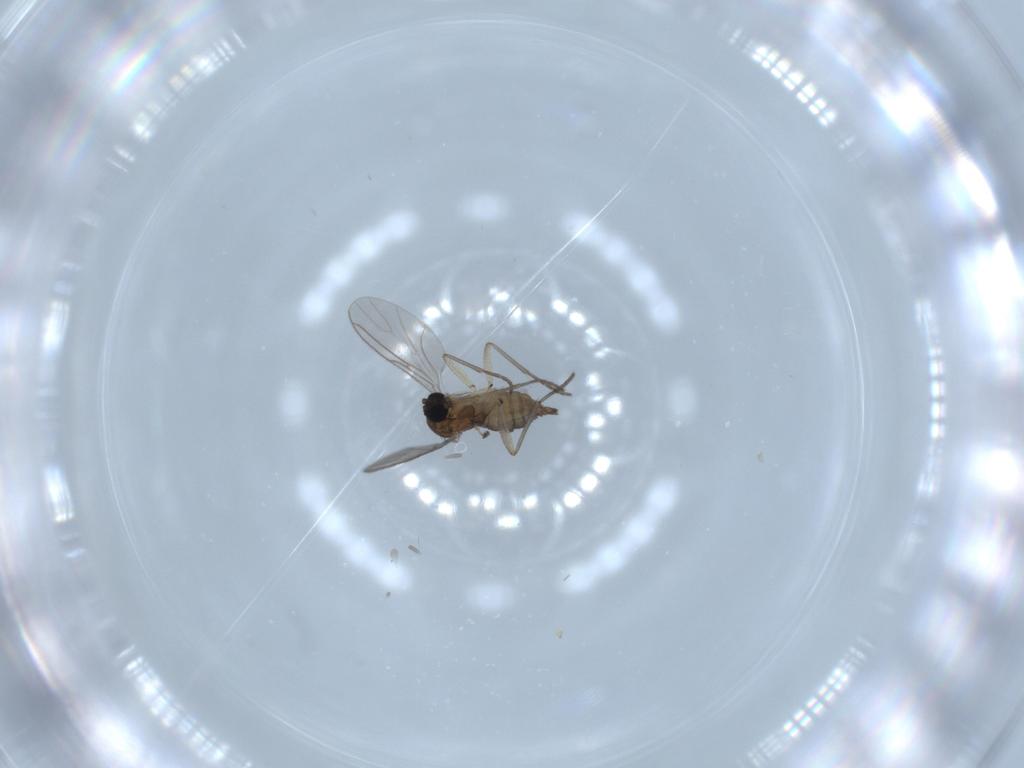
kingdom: Animalia
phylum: Arthropoda
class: Insecta
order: Diptera
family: Sciaridae
